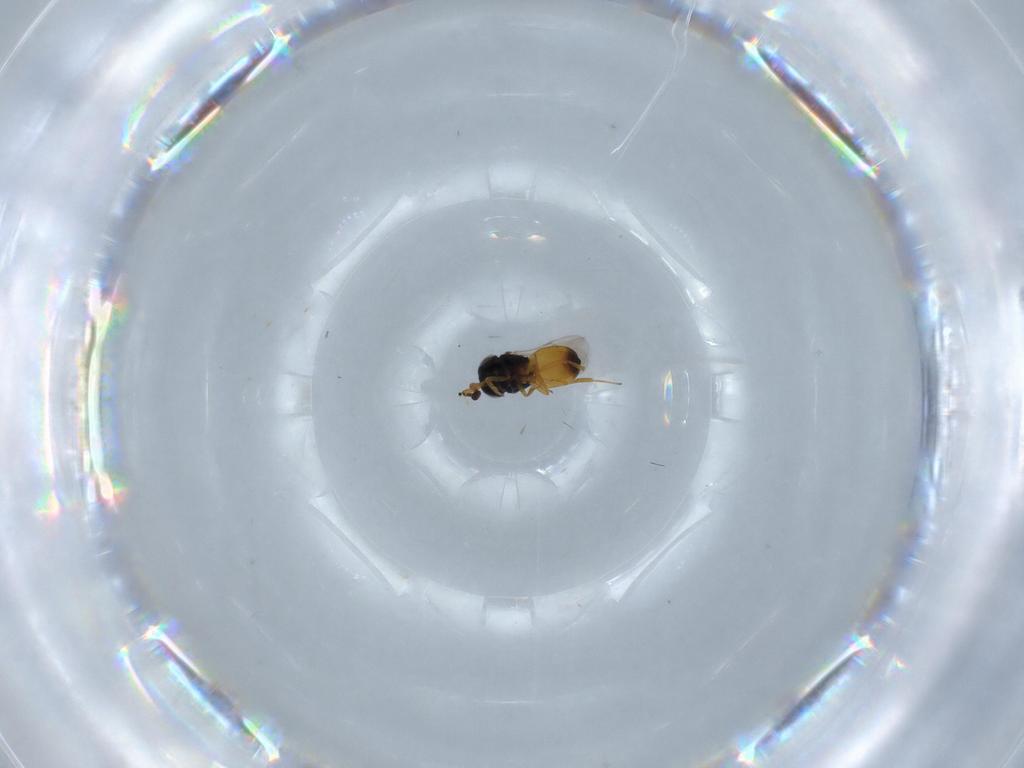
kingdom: Animalia
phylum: Arthropoda
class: Insecta
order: Hymenoptera
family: Scelionidae
